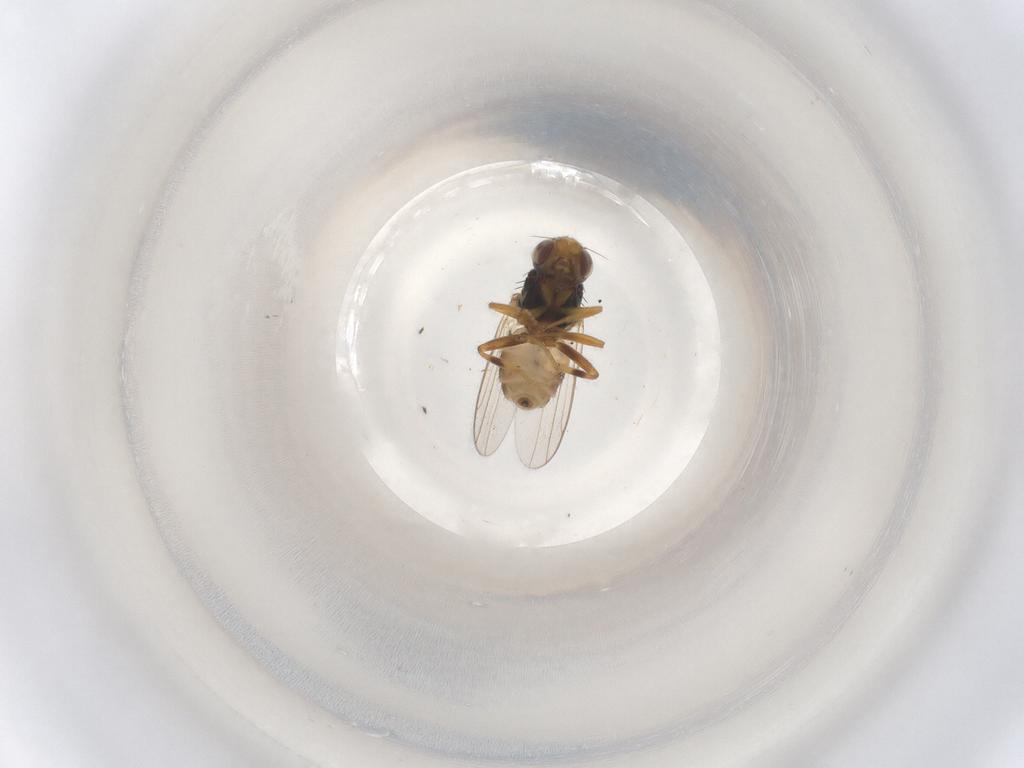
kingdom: Animalia
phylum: Arthropoda
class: Insecta
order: Diptera
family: Chloropidae
